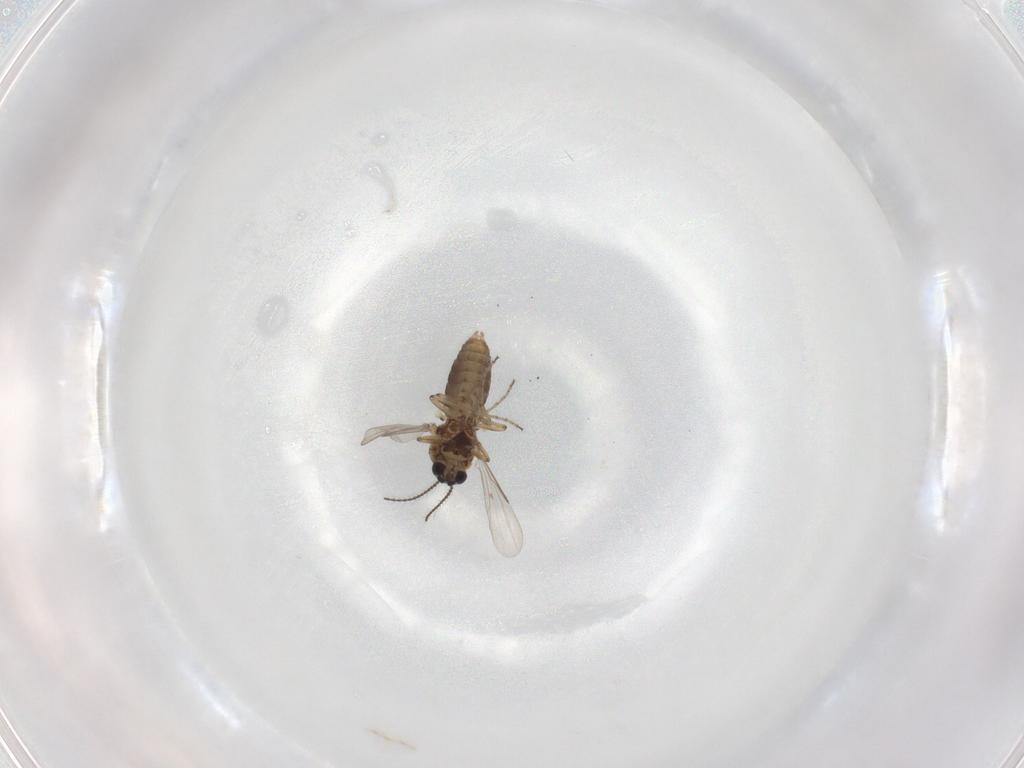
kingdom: Animalia
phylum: Arthropoda
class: Insecta
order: Diptera
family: Ceratopogonidae
